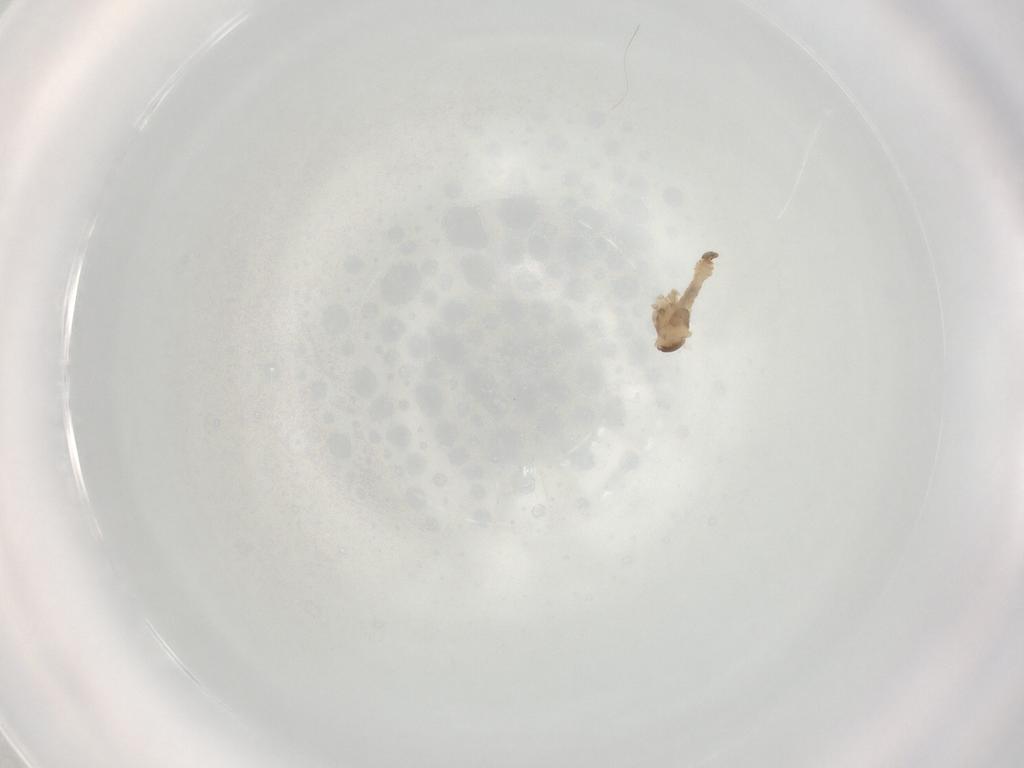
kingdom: Animalia
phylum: Arthropoda
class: Insecta
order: Diptera
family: Cecidomyiidae
